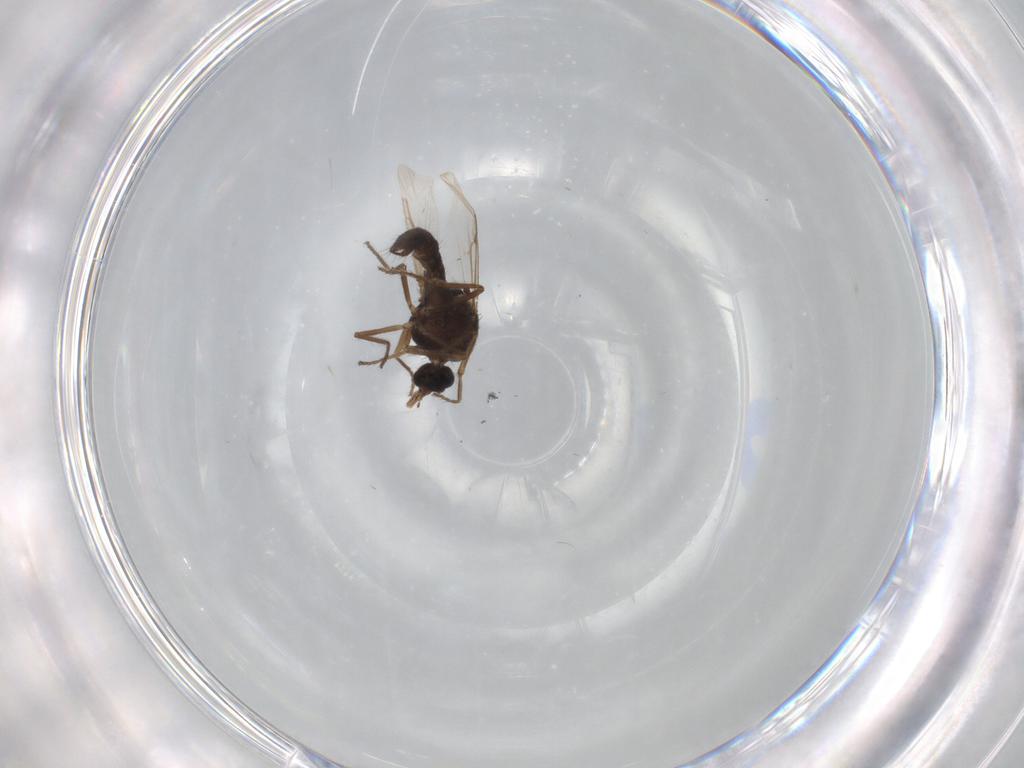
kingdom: Animalia
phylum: Arthropoda
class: Insecta
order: Diptera
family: Ceratopogonidae
